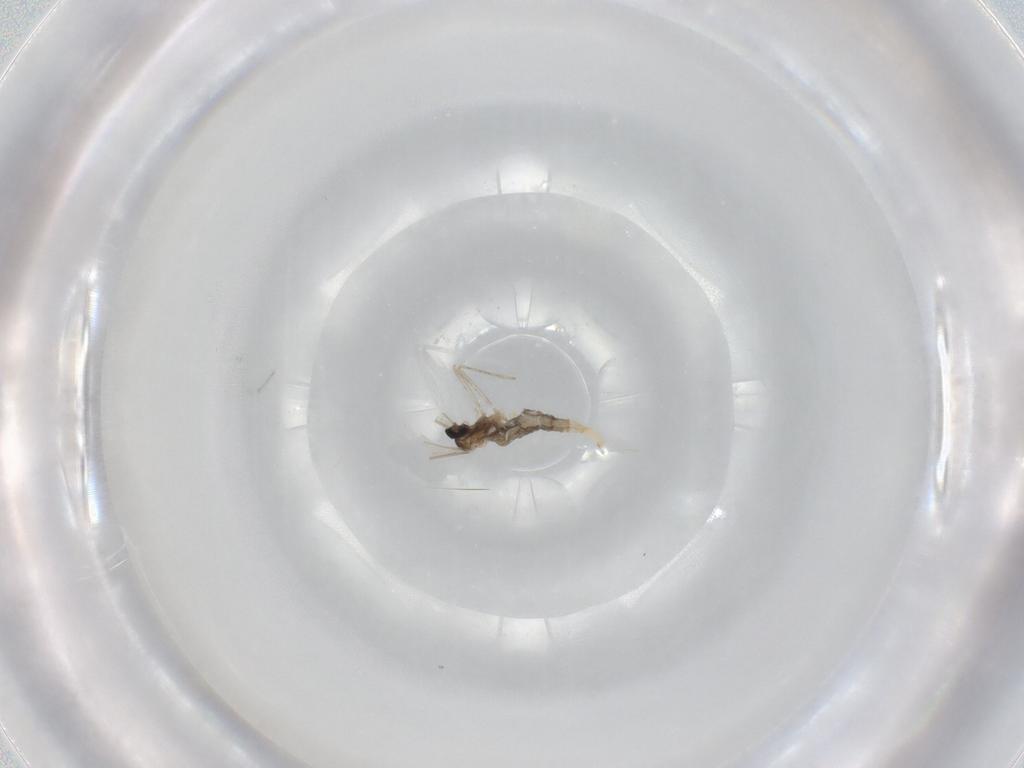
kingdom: Animalia
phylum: Arthropoda
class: Insecta
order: Diptera
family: Cecidomyiidae
